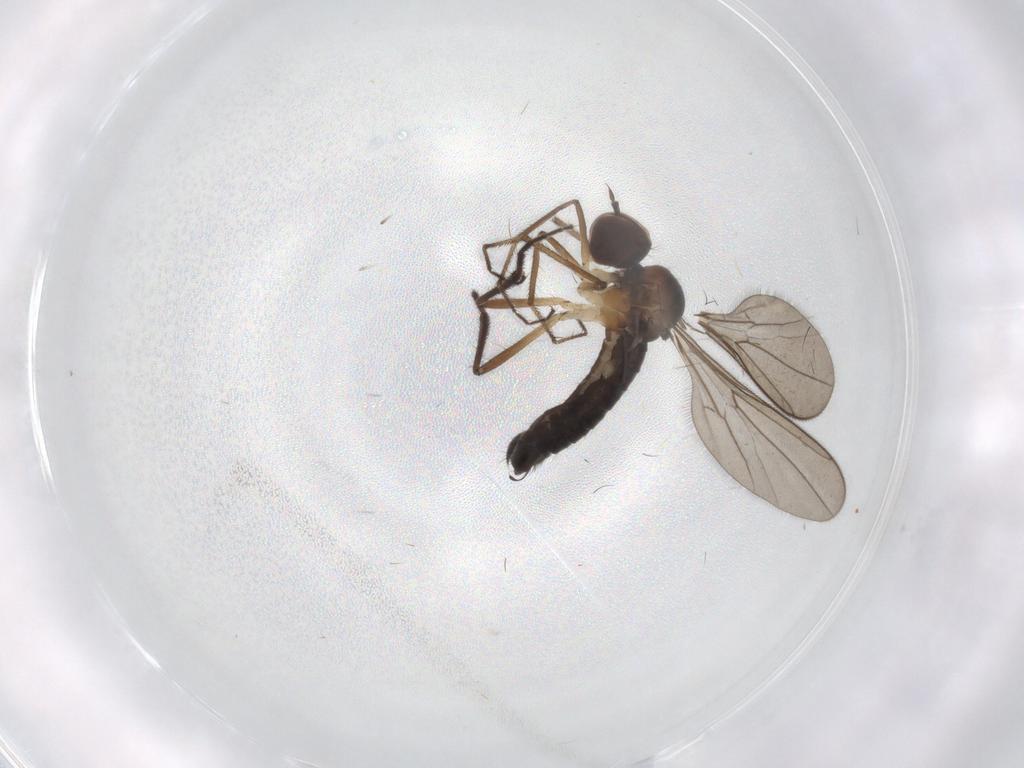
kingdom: Animalia
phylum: Arthropoda
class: Insecta
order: Diptera
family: Hybotidae
